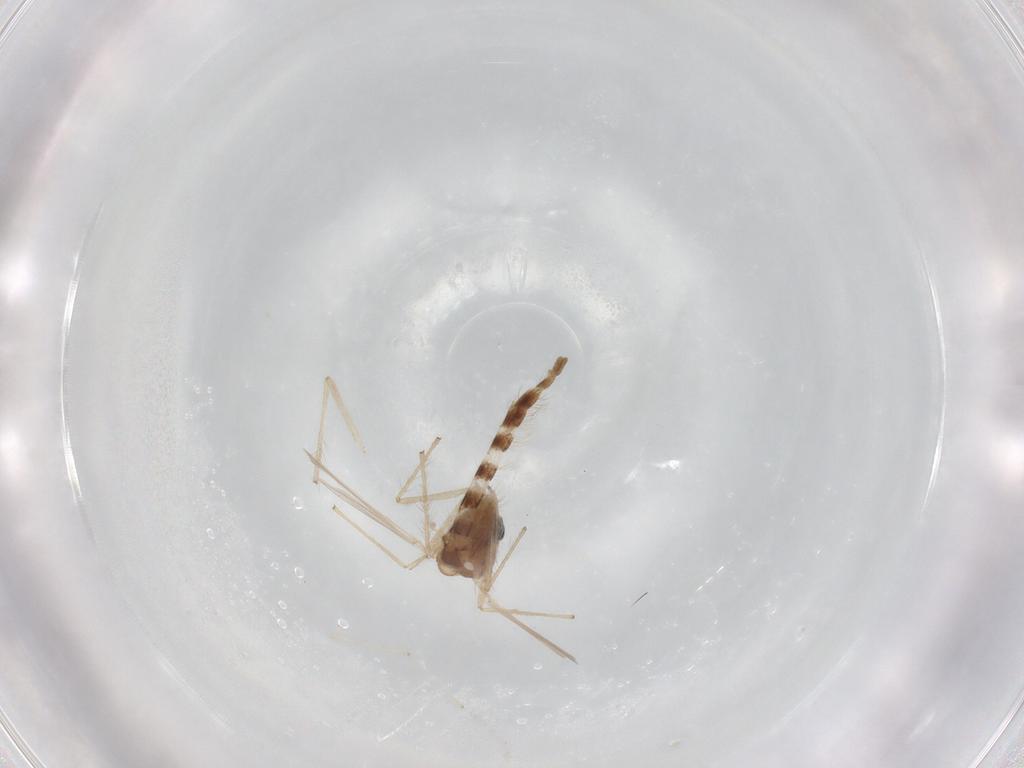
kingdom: Animalia
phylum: Arthropoda
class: Insecta
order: Diptera
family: Chironomidae
